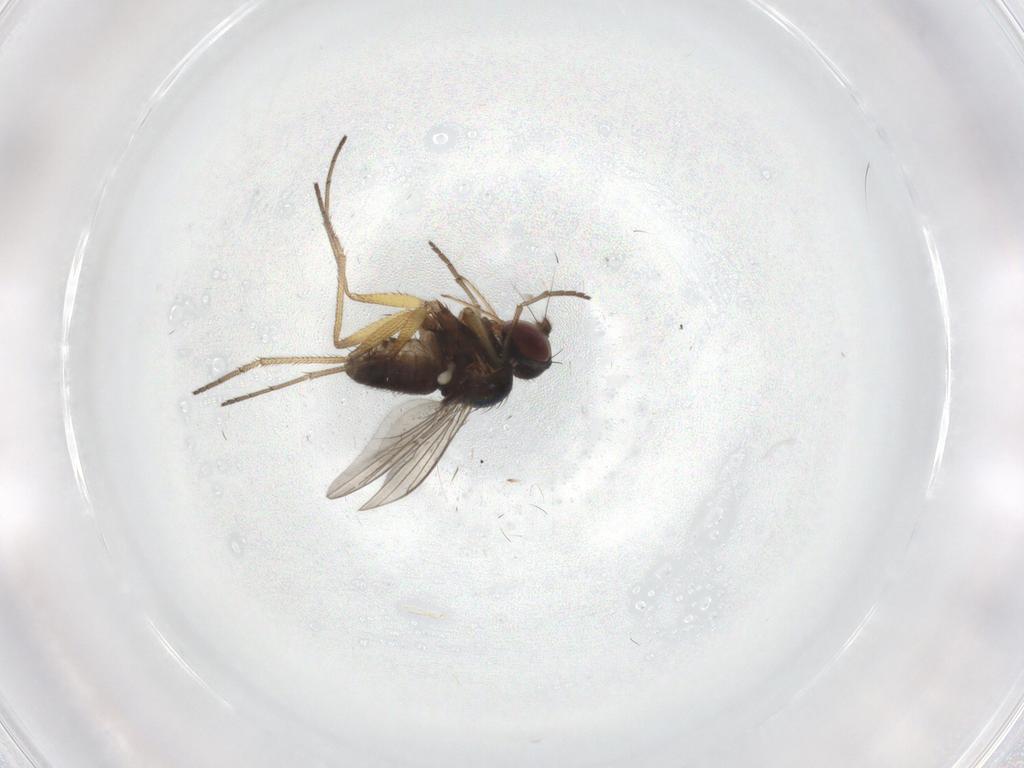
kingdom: Animalia
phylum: Arthropoda
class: Insecta
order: Diptera
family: Dolichopodidae
